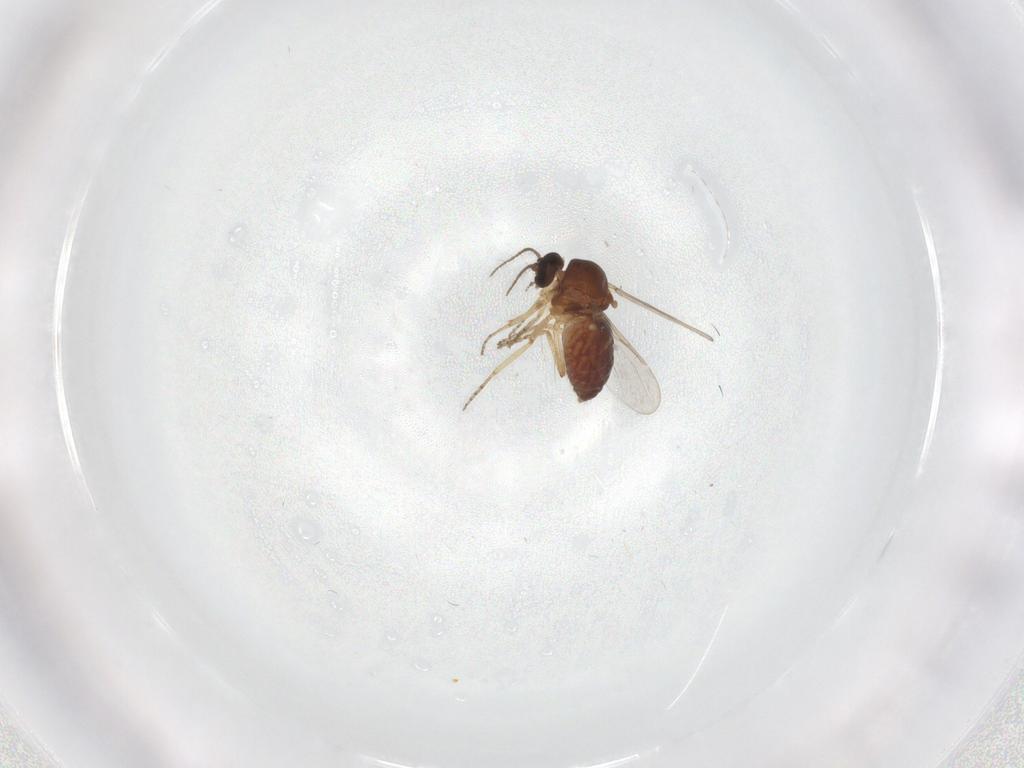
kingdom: Animalia
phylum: Arthropoda
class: Insecta
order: Diptera
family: Ceratopogonidae
